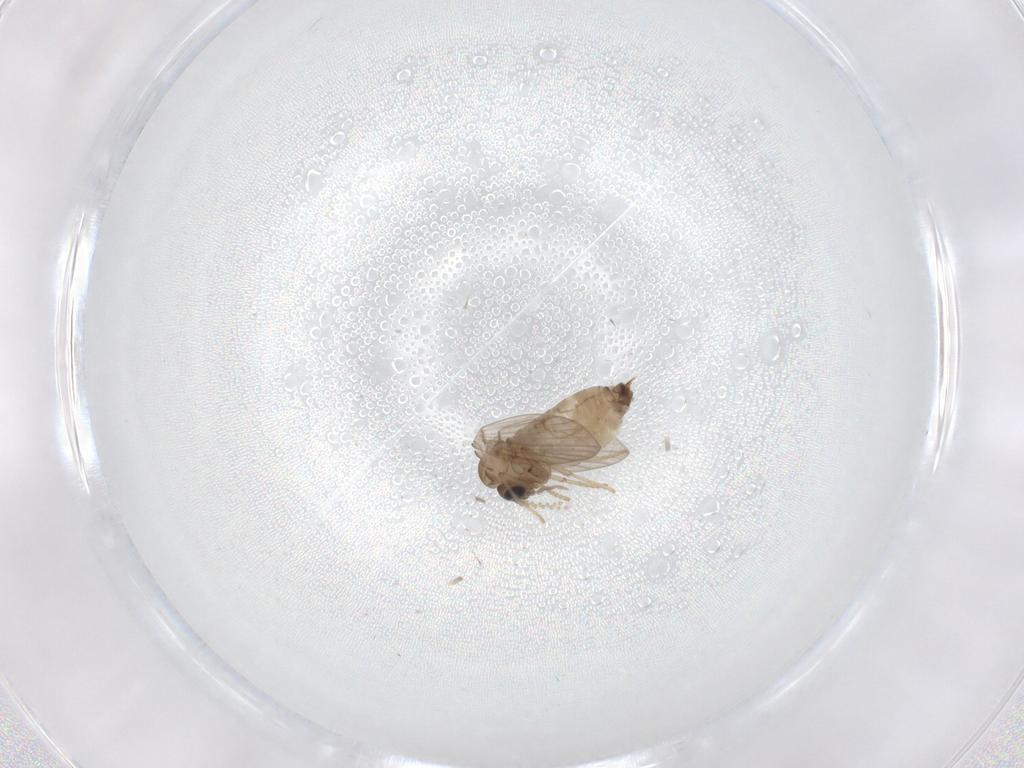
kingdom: Animalia
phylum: Arthropoda
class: Insecta
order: Diptera
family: Psychodidae
